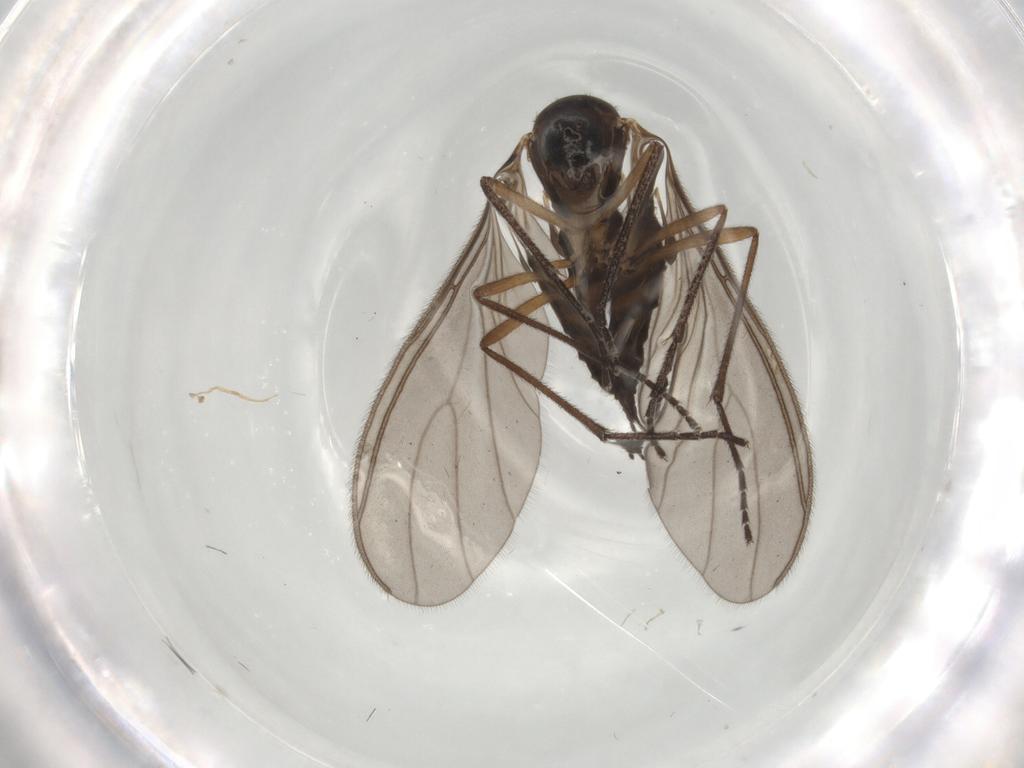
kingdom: Animalia
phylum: Arthropoda
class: Insecta
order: Diptera
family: Sciaridae
